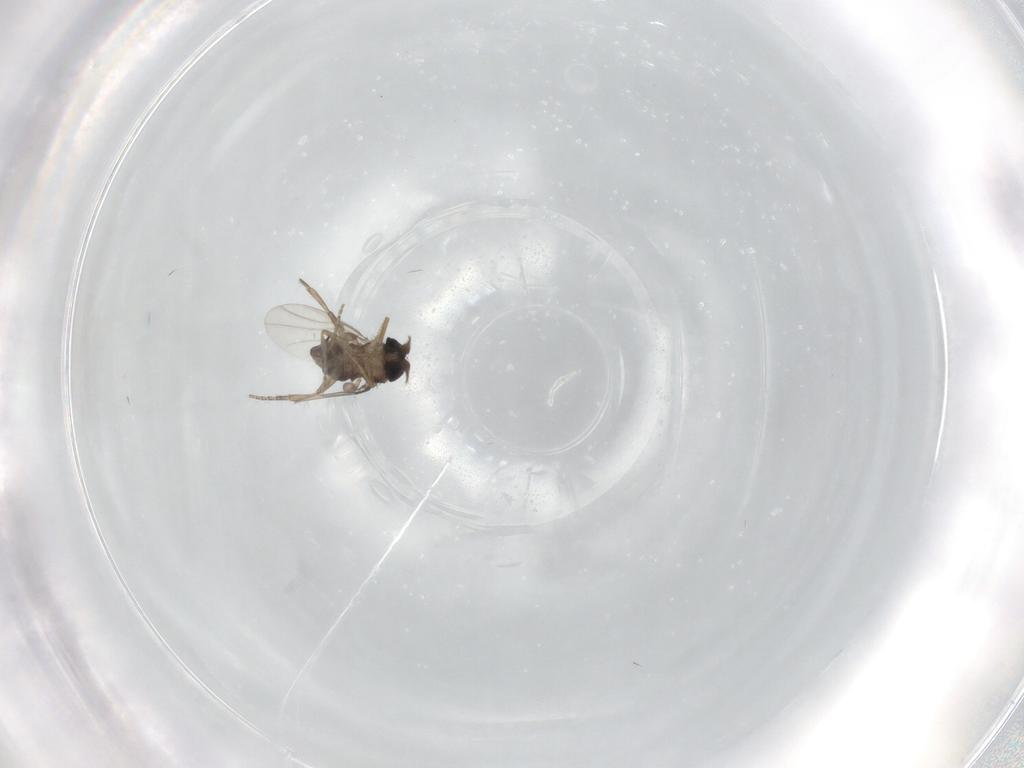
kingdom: Animalia
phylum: Arthropoda
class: Insecta
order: Diptera
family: Phoridae
